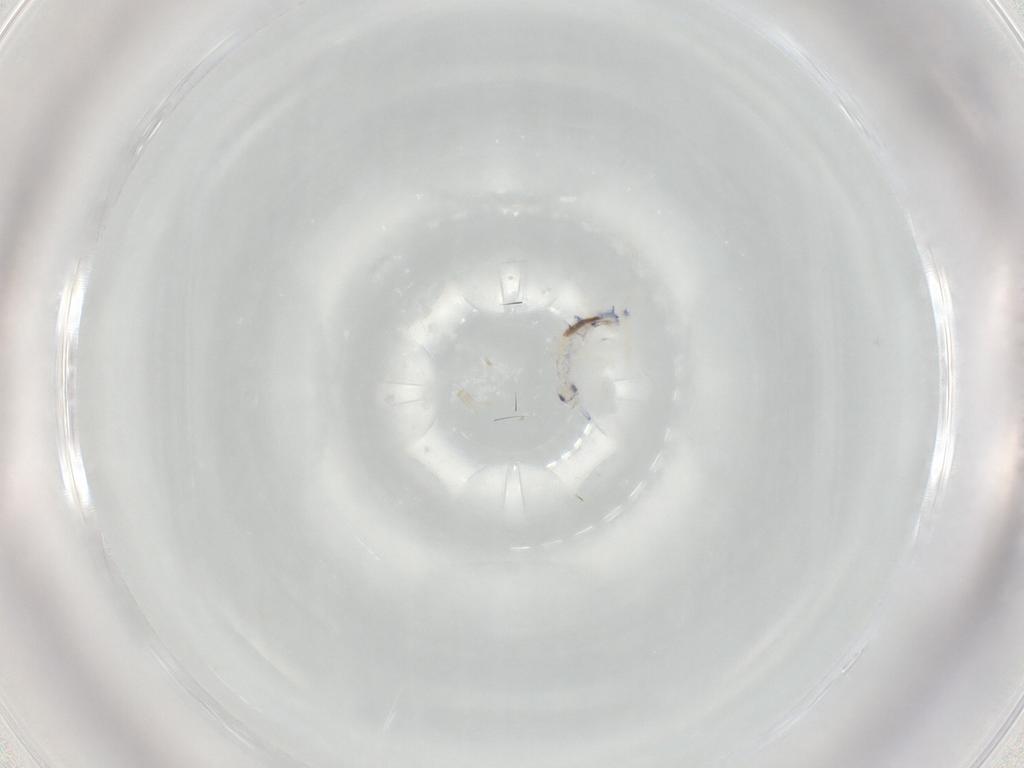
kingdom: Animalia
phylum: Arthropoda
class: Collembola
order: Entomobryomorpha
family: Entomobryidae
